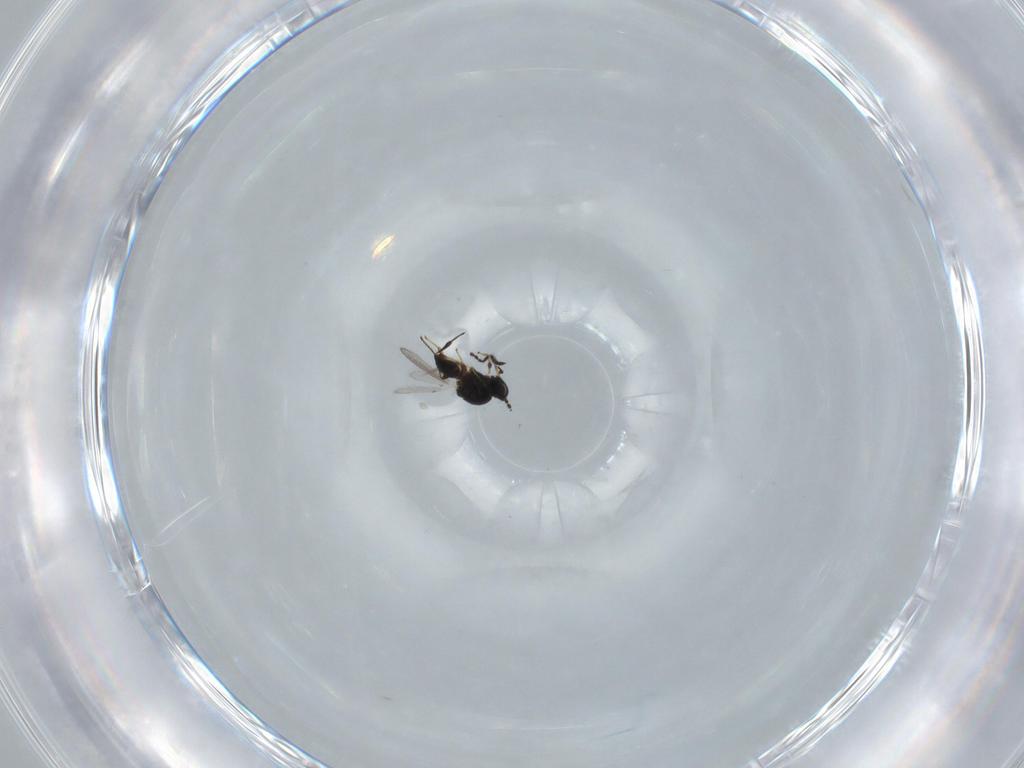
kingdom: Animalia
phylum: Arthropoda
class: Insecta
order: Hymenoptera
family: Platygastridae
